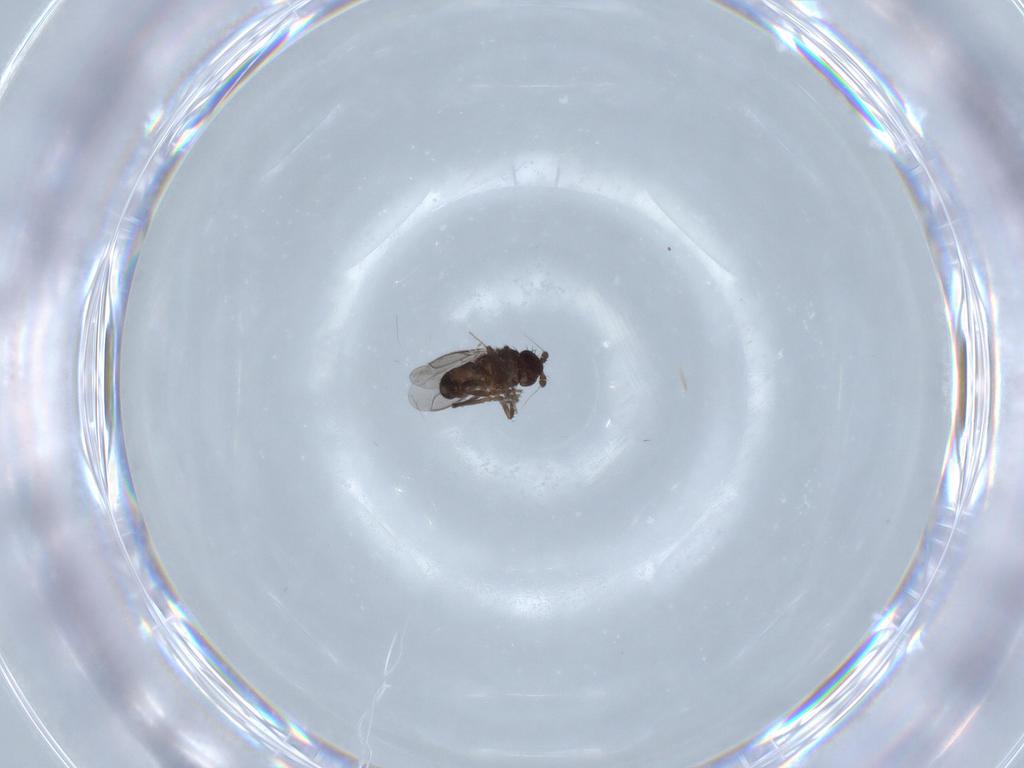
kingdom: Animalia
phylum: Arthropoda
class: Insecta
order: Diptera
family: Chironomidae
